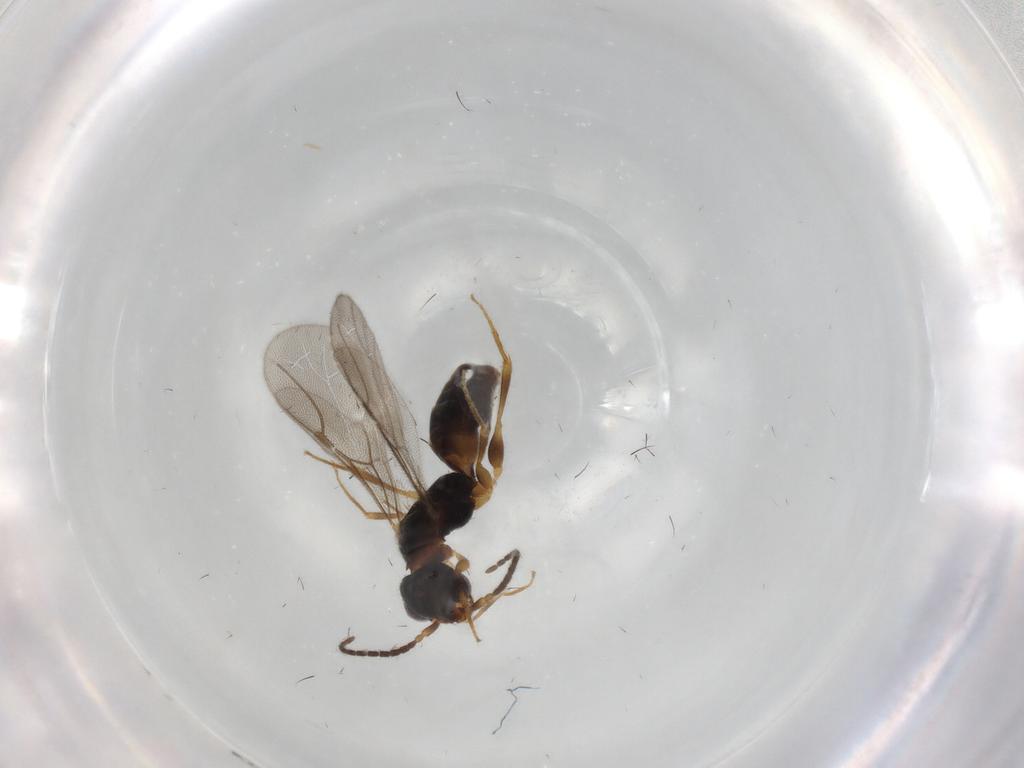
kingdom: Animalia
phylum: Arthropoda
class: Insecta
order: Hymenoptera
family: Bethylidae
